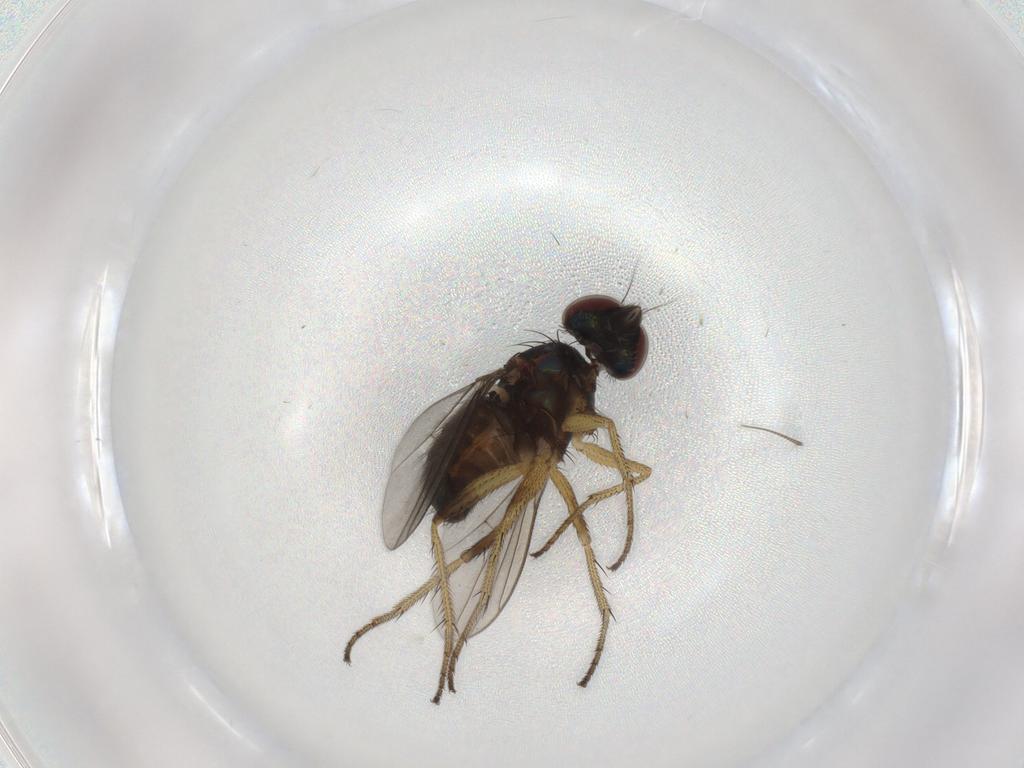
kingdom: Animalia
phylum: Arthropoda
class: Insecta
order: Diptera
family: Dolichopodidae
